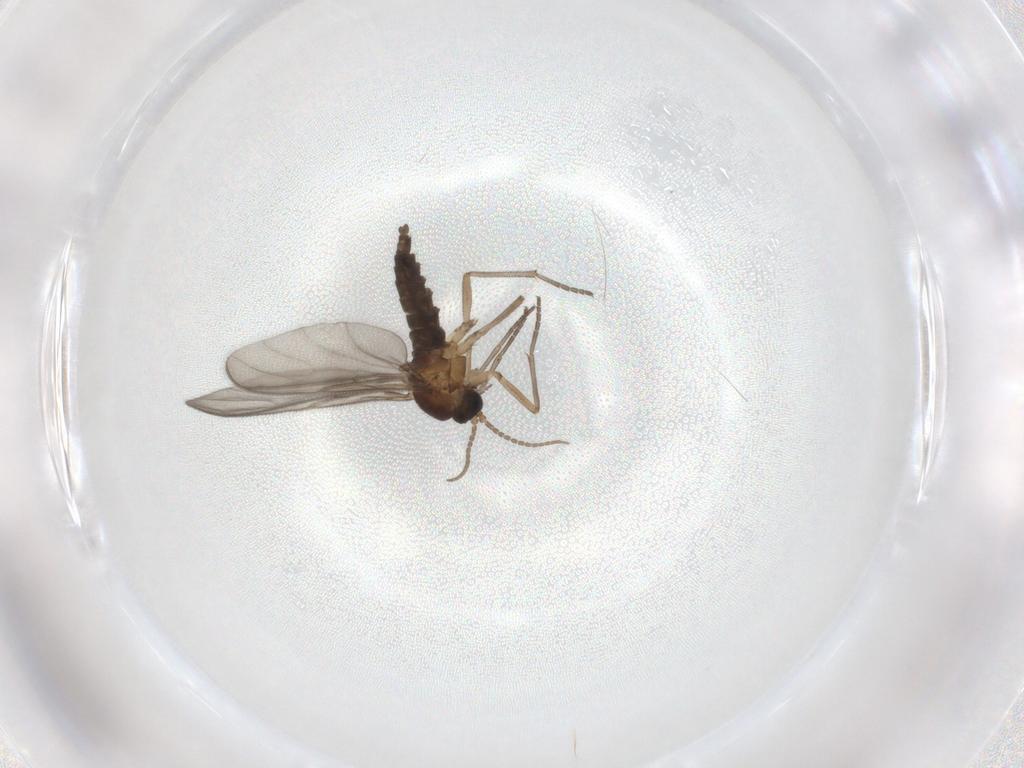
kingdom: Animalia
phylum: Arthropoda
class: Insecta
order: Diptera
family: Sciaridae
